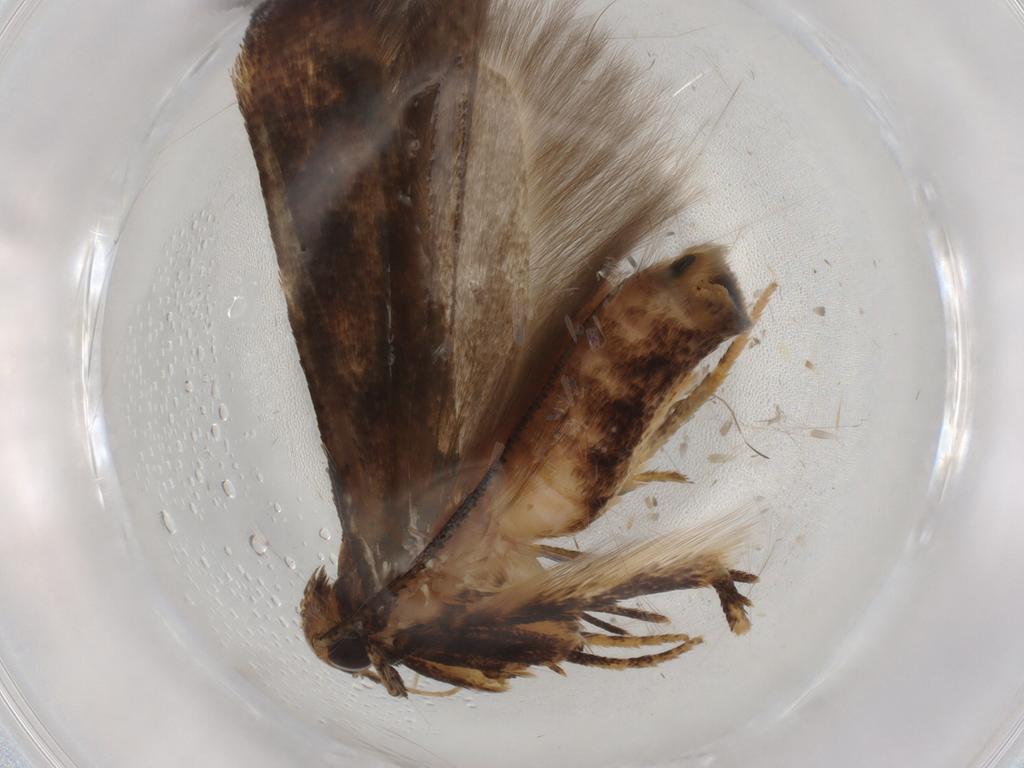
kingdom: Animalia
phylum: Arthropoda
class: Insecta
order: Lepidoptera
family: Gelechiidae
